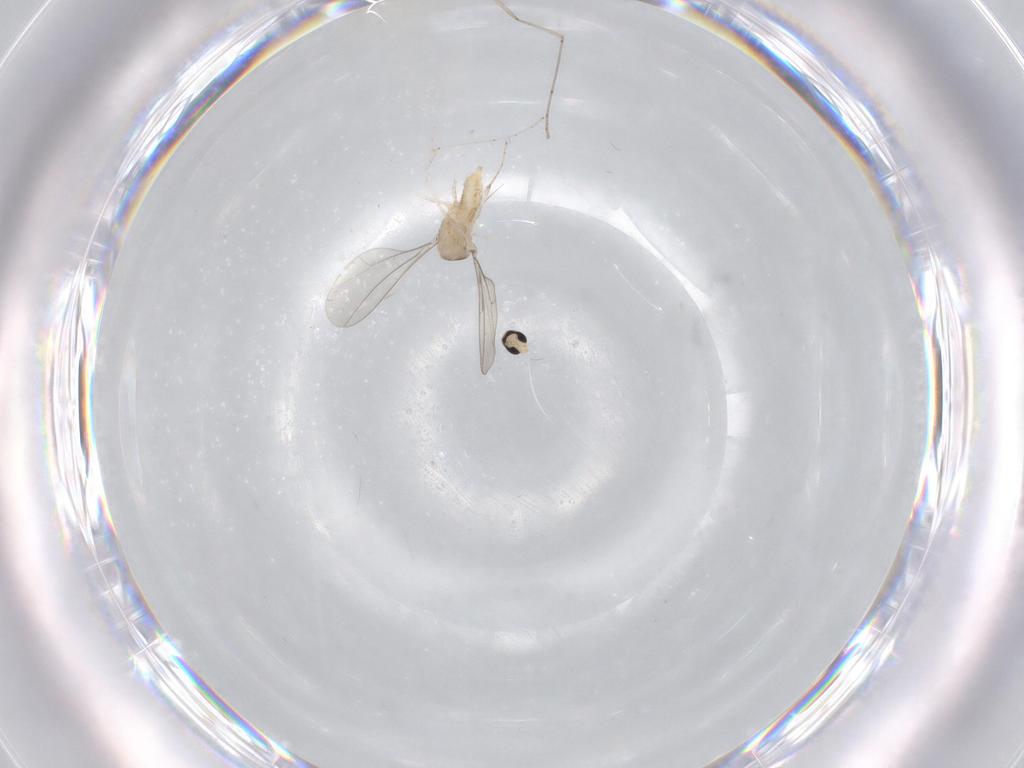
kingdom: Animalia
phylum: Arthropoda
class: Insecta
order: Diptera
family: Cecidomyiidae
